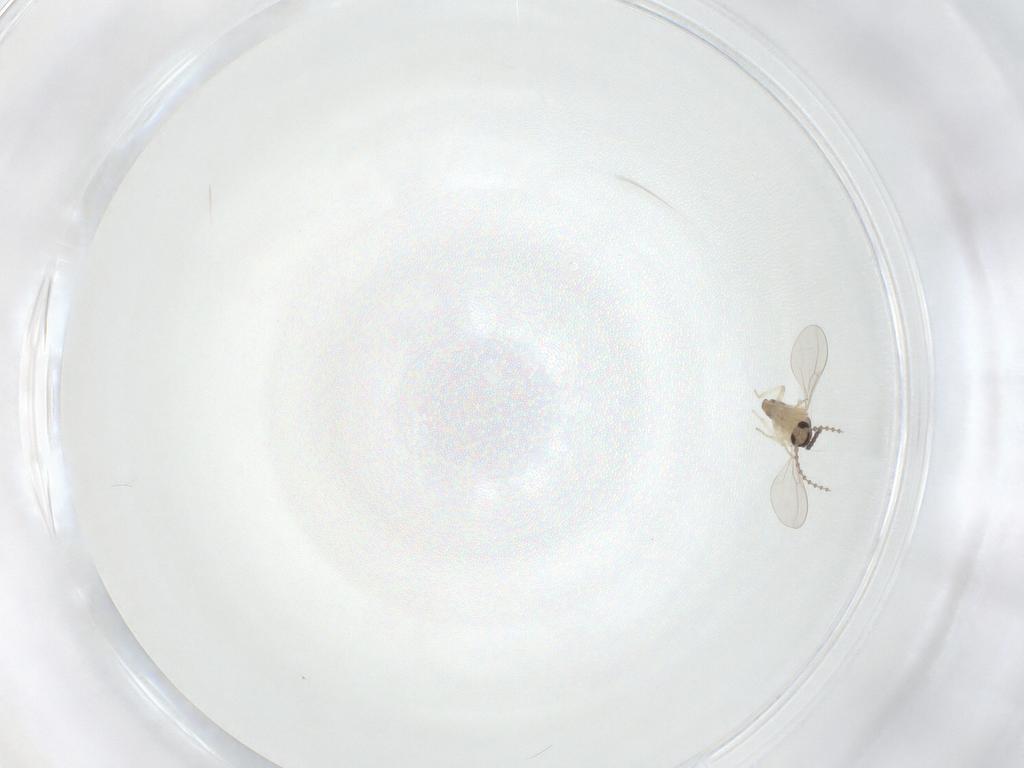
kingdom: Animalia
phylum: Arthropoda
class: Insecta
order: Diptera
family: Cecidomyiidae
